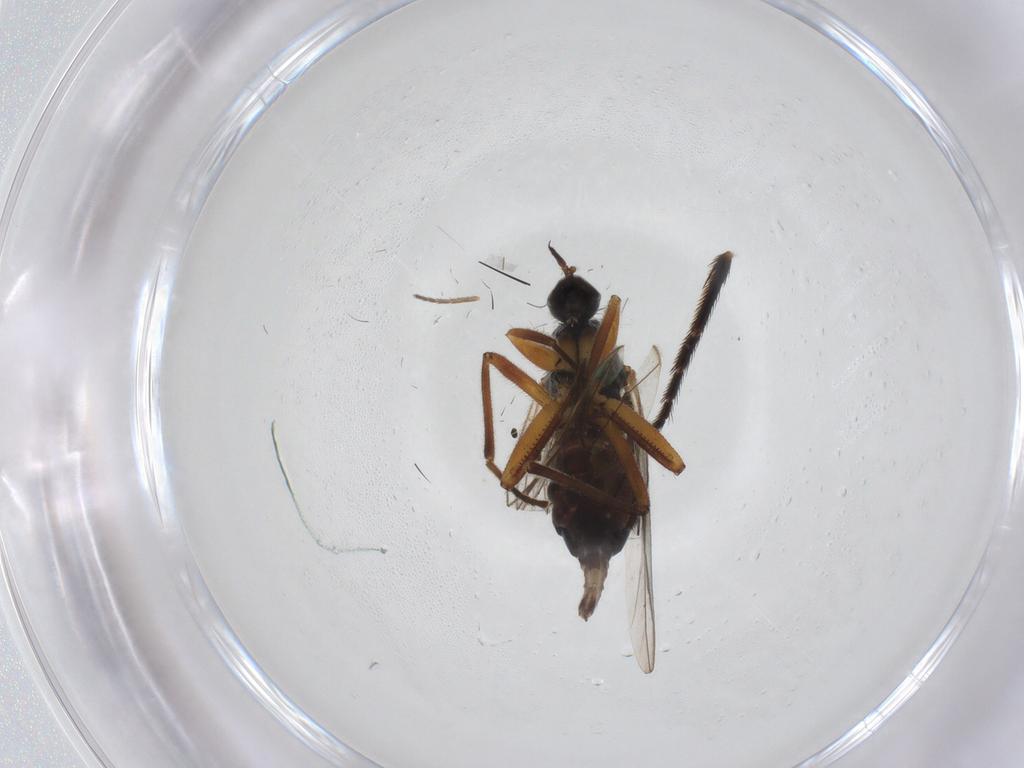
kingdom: Animalia
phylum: Arthropoda
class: Insecta
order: Diptera
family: Hybotidae
